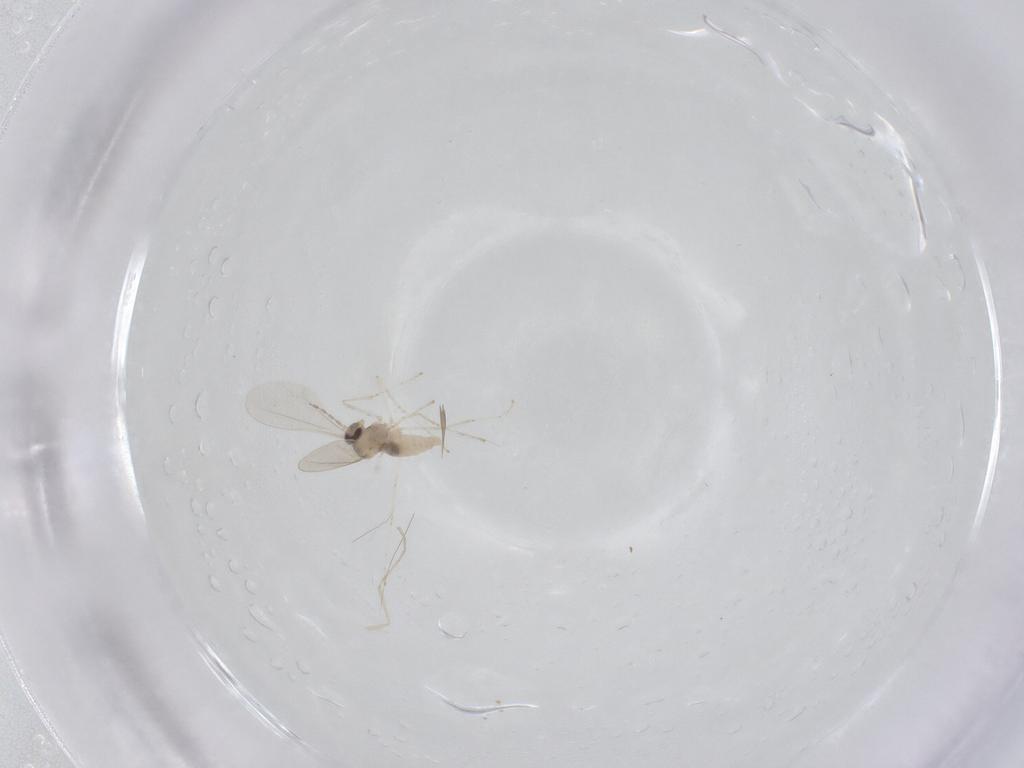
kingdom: Animalia
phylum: Arthropoda
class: Insecta
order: Diptera
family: Cecidomyiidae
